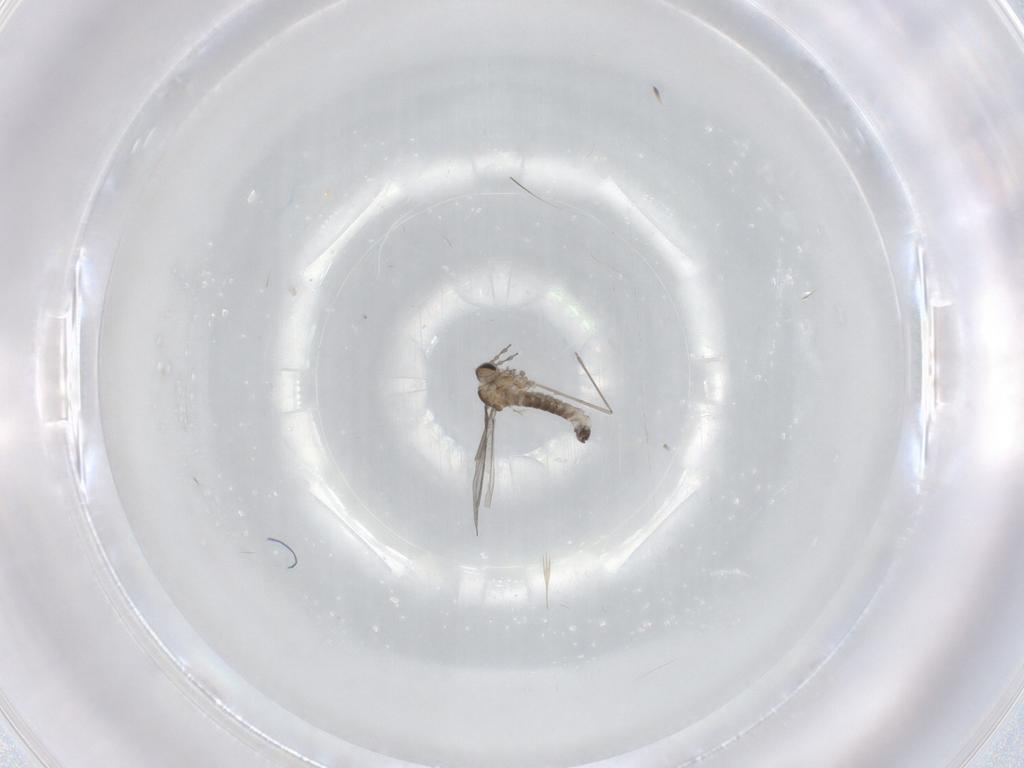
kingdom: Animalia
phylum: Arthropoda
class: Insecta
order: Diptera
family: Cecidomyiidae
